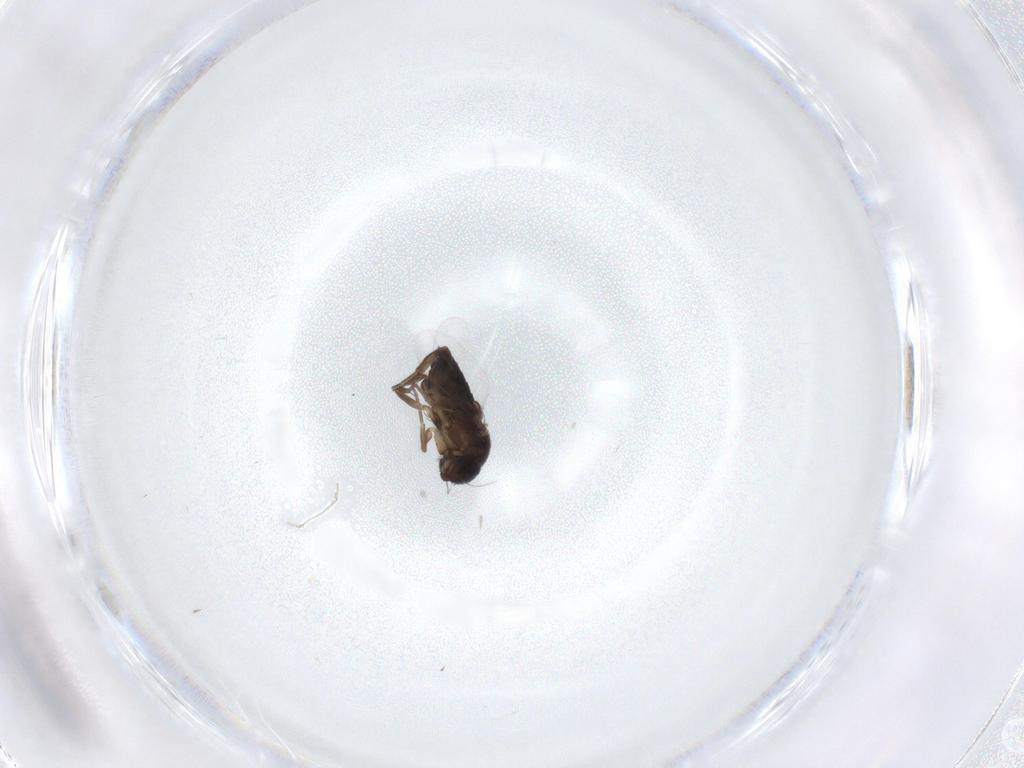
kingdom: Animalia
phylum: Arthropoda
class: Insecta
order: Diptera
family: Phoridae
